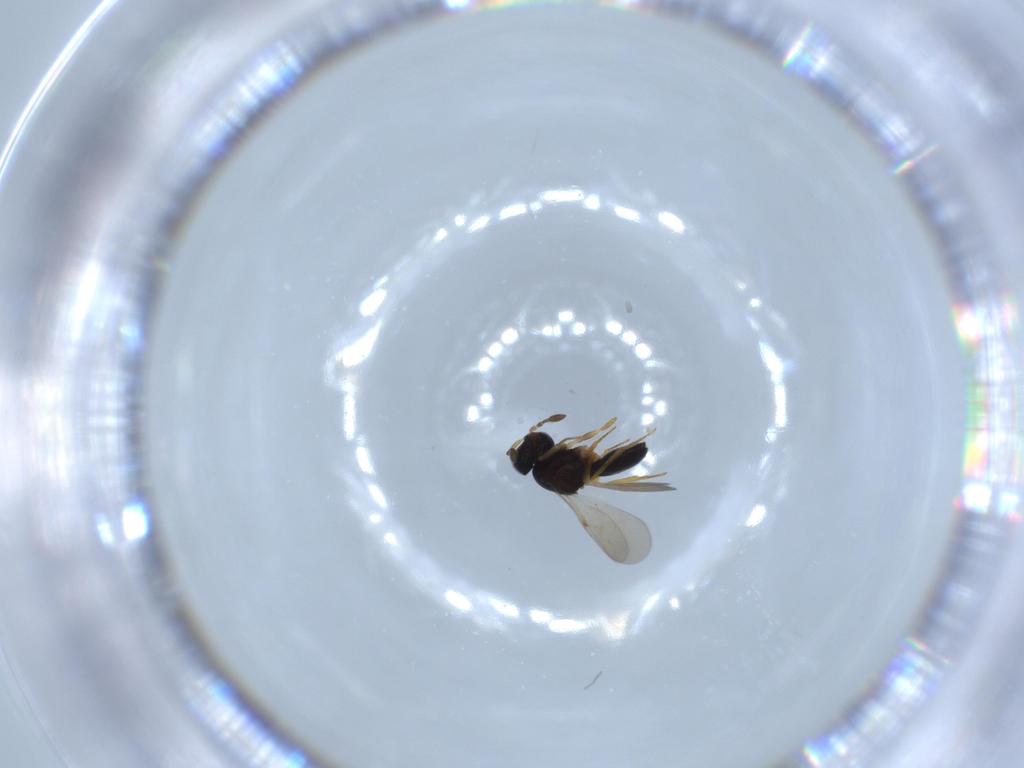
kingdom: Animalia
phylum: Arthropoda
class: Insecta
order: Hymenoptera
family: Scelionidae
